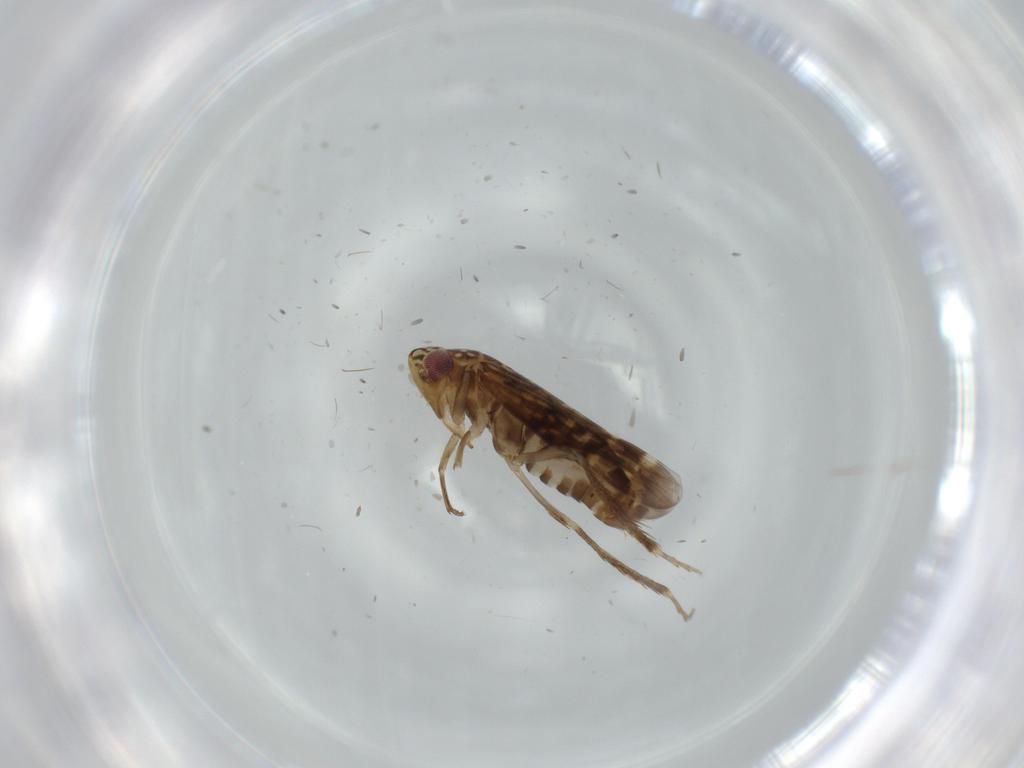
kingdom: Animalia
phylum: Arthropoda
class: Insecta
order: Hemiptera
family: Cicadellidae
